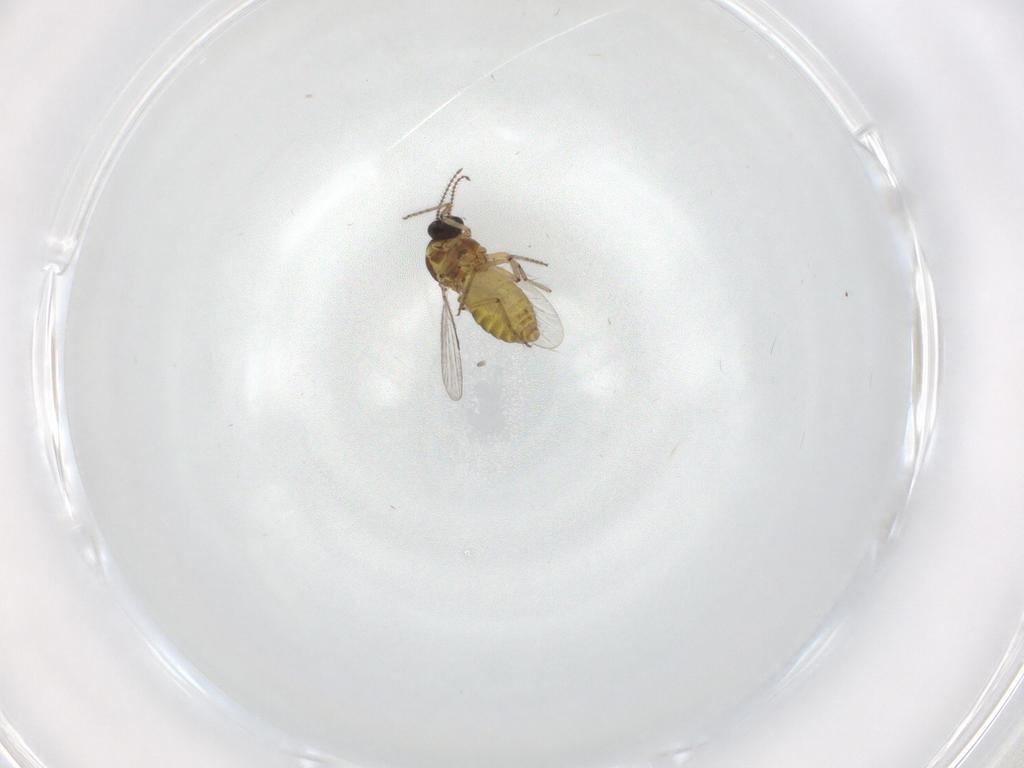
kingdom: Animalia
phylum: Arthropoda
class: Insecta
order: Diptera
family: Ceratopogonidae
